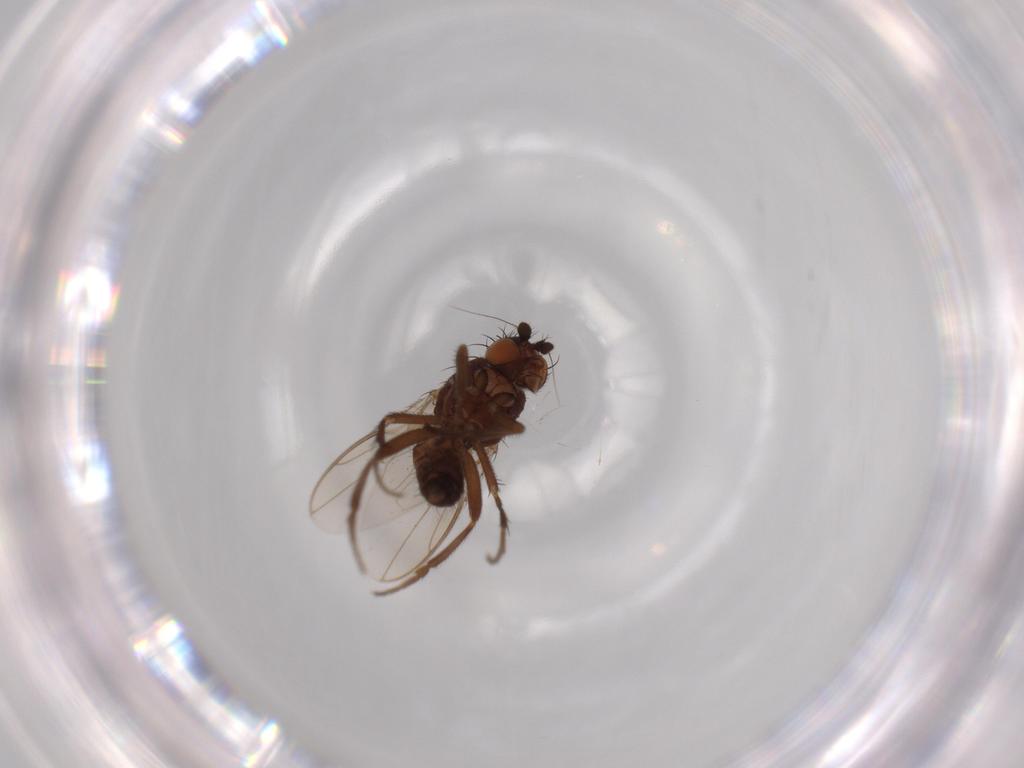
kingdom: Animalia
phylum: Arthropoda
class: Insecta
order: Diptera
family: Sphaeroceridae
